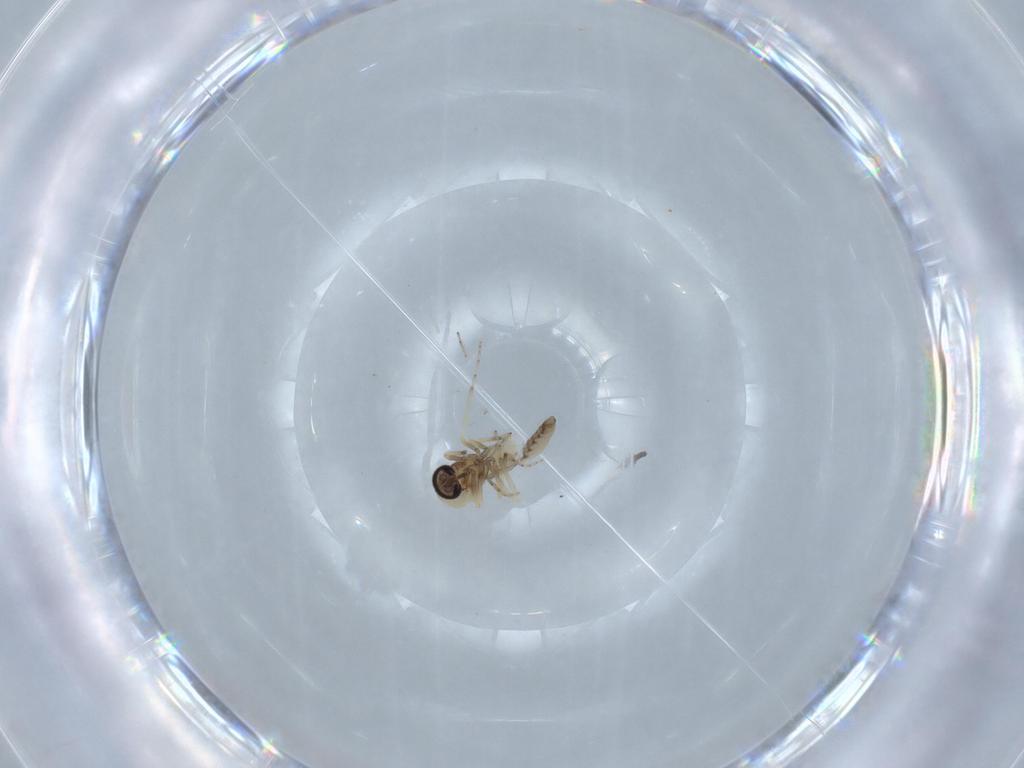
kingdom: Animalia
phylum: Arthropoda
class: Insecta
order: Diptera
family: Ceratopogonidae
